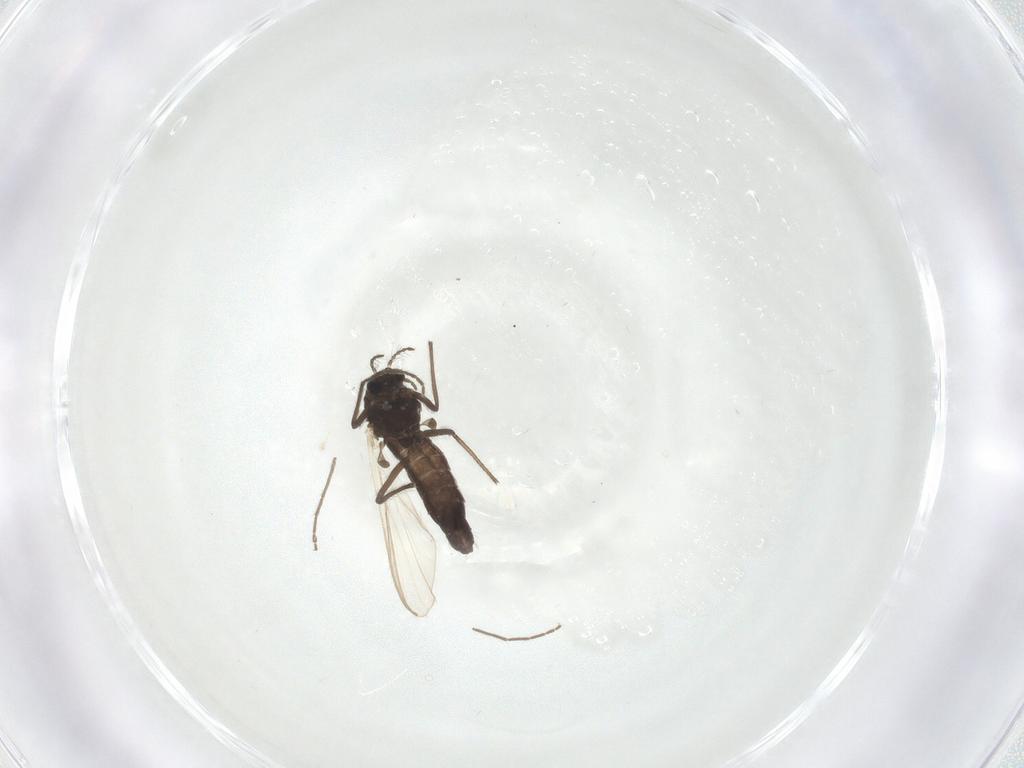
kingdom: Animalia
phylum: Arthropoda
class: Insecta
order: Diptera
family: Chironomidae
